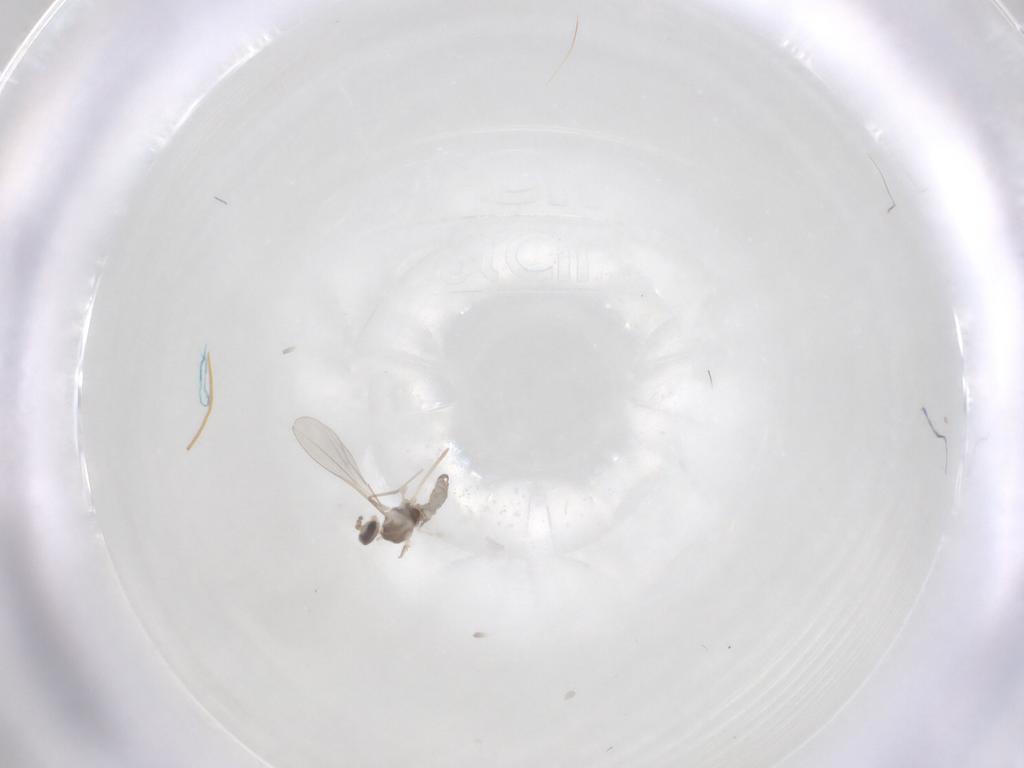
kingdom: Animalia
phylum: Arthropoda
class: Insecta
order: Diptera
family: Cecidomyiidae
